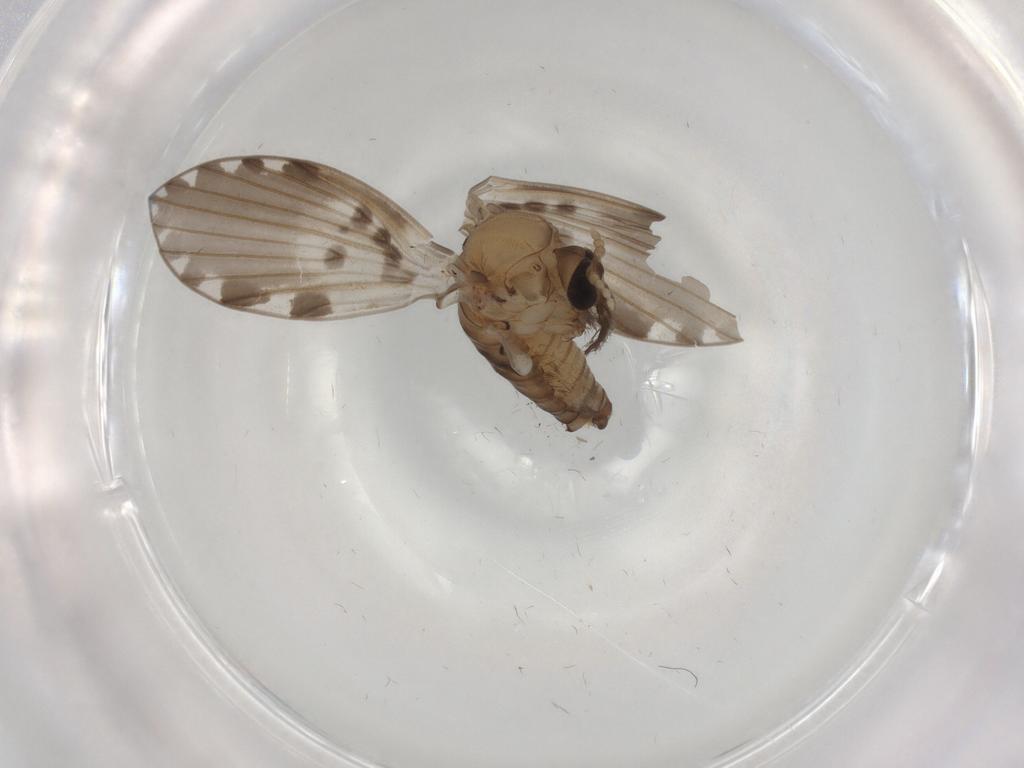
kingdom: Animalia
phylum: Arthropoda
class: Insecta
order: Diptera
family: Psychodidae
